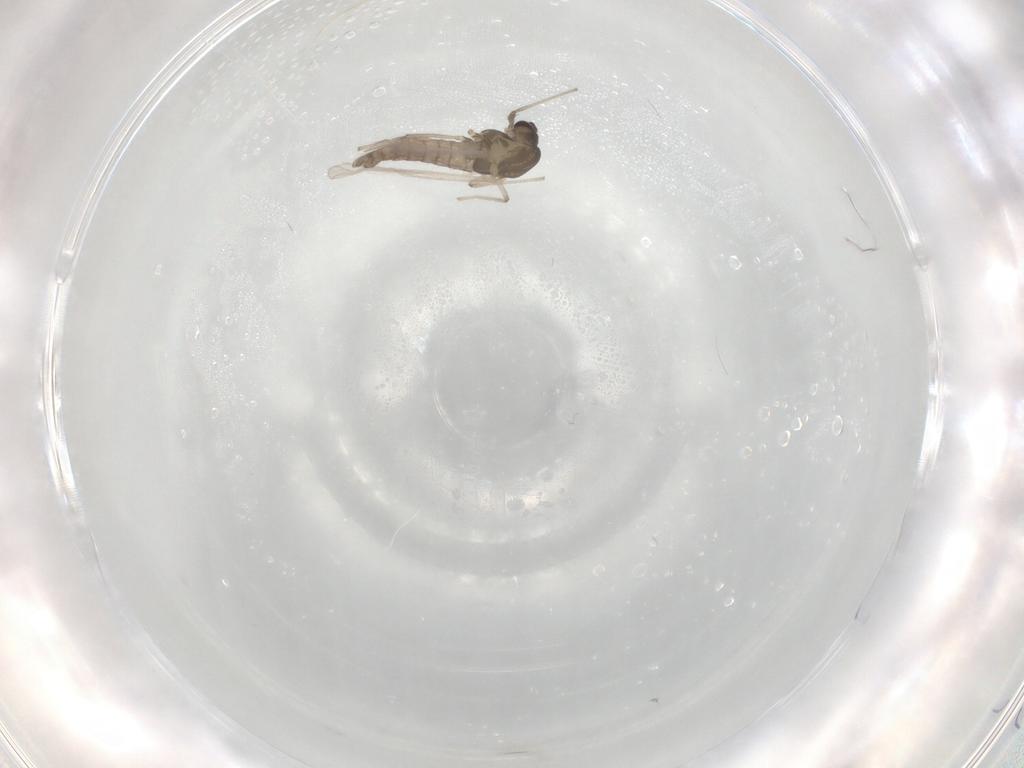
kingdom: Animalia
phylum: Arthropoda
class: Insecta
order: Diptera
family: Chironomidae
